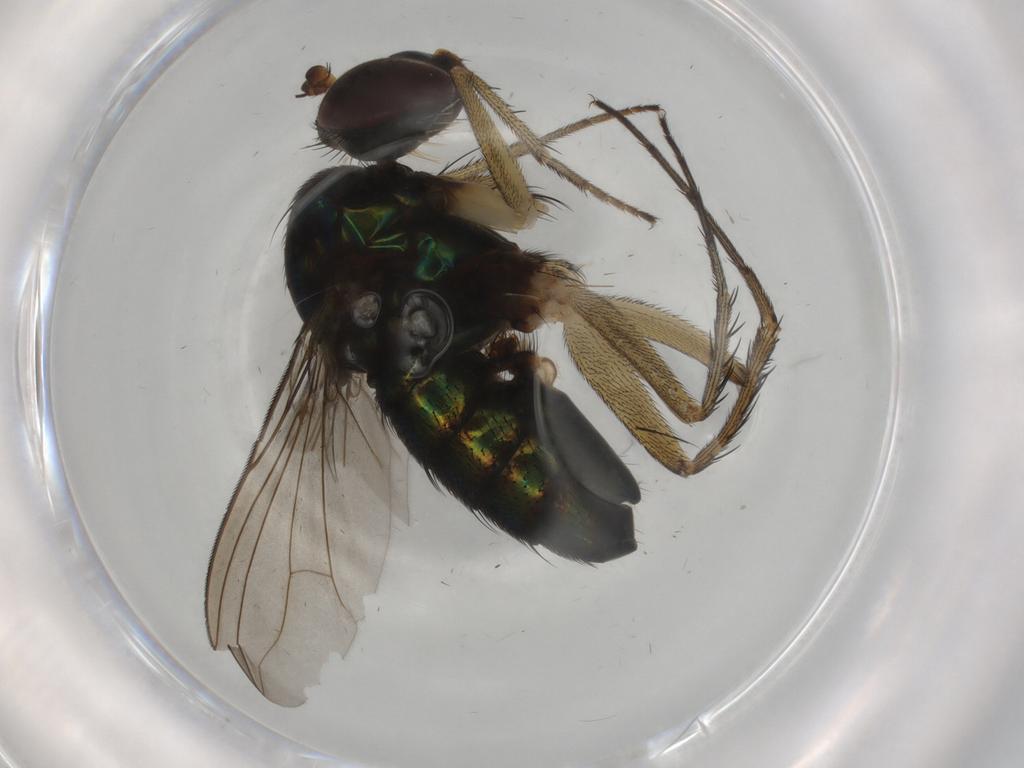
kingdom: Animalia
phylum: Arthropoda
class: Insecta
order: Diptera
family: Dolichopodidae
